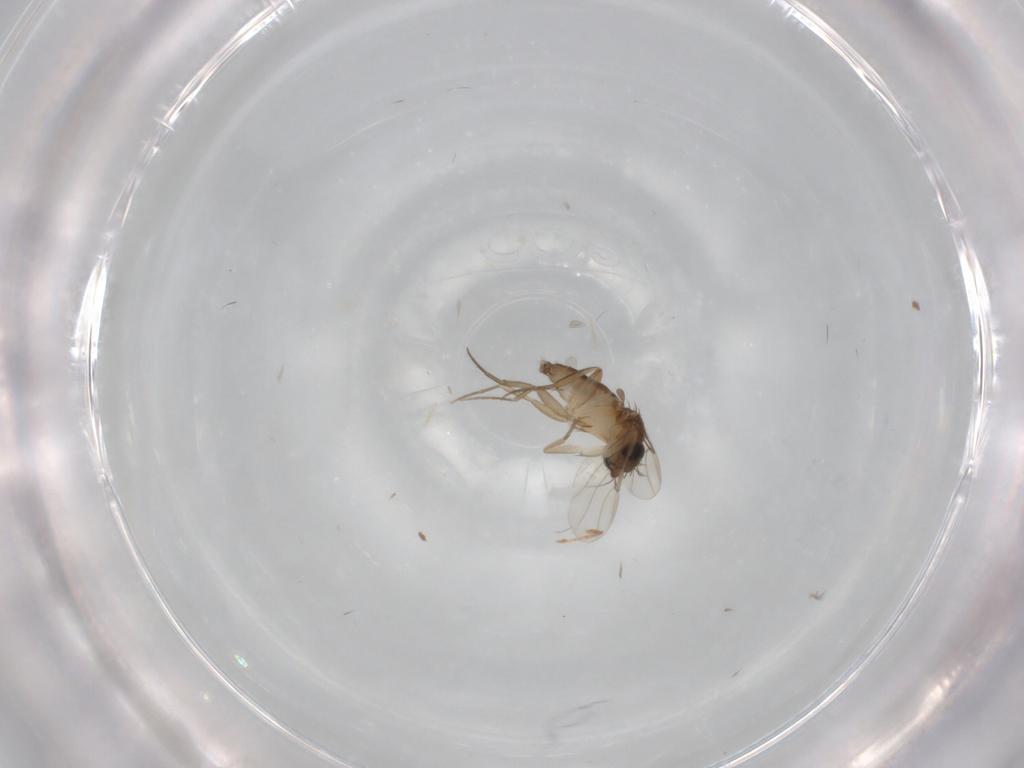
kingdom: Animalia
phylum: Arthropoda
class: Insecta
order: Diptera
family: Phoridae
